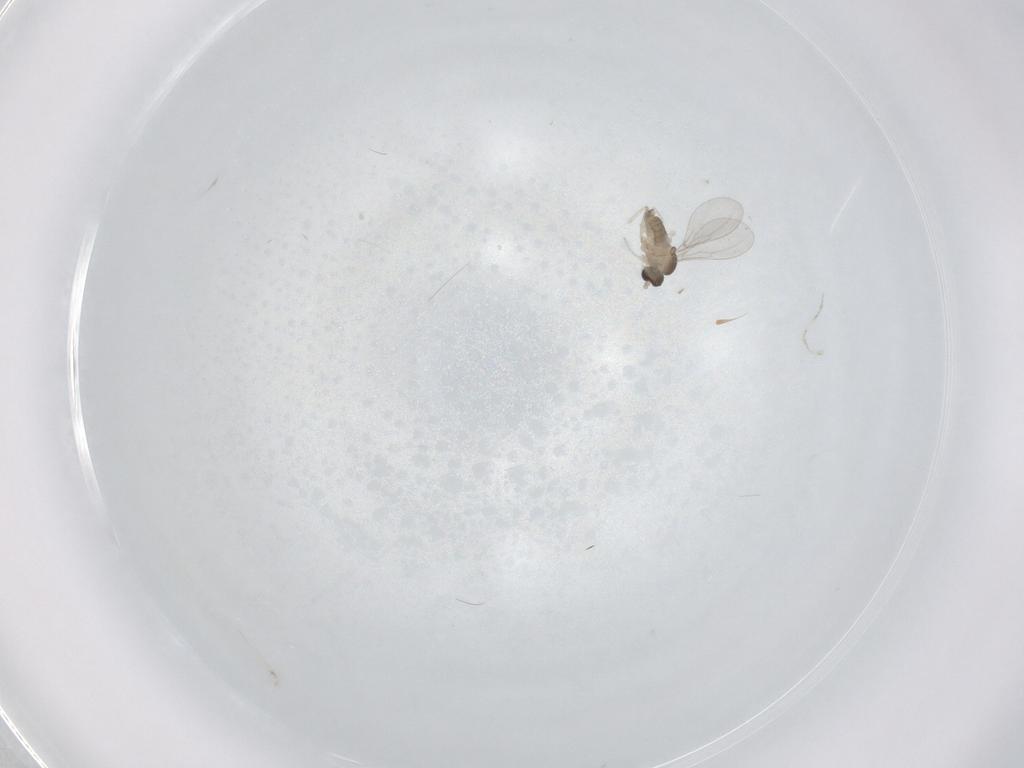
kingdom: Animalia
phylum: Arthropoda
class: Insecta
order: Diptera
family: Cecidomyiidae
